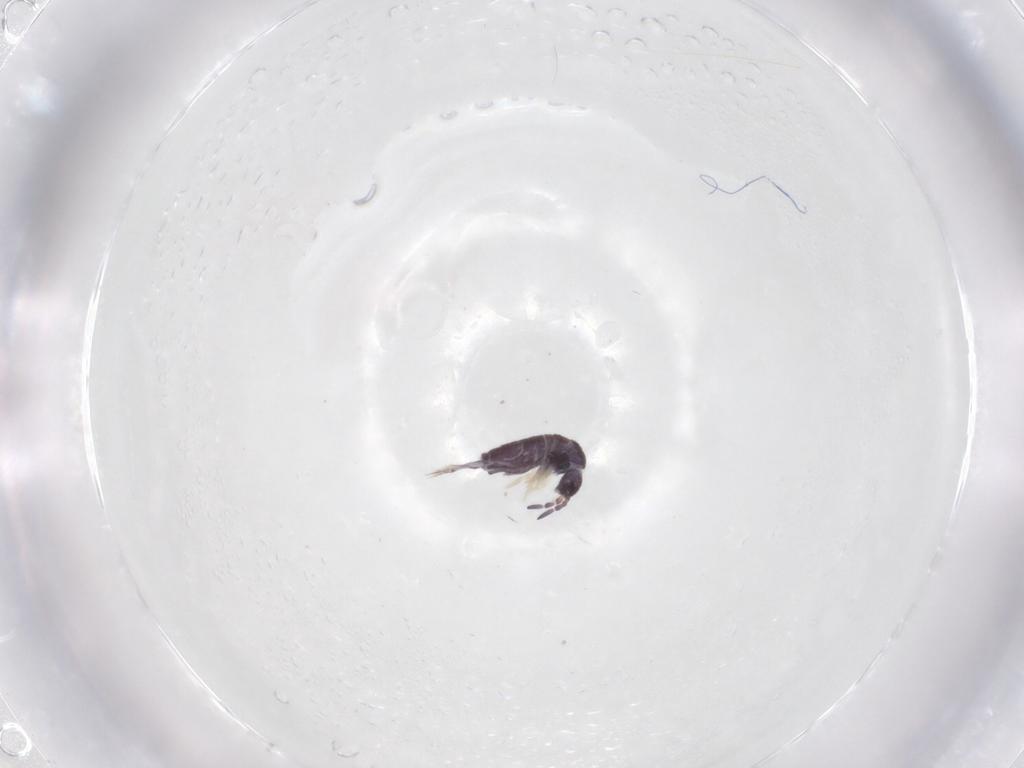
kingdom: Animalia
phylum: Arthropoda
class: Collembola
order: Entomobryomorpha
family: Entomobryidae
